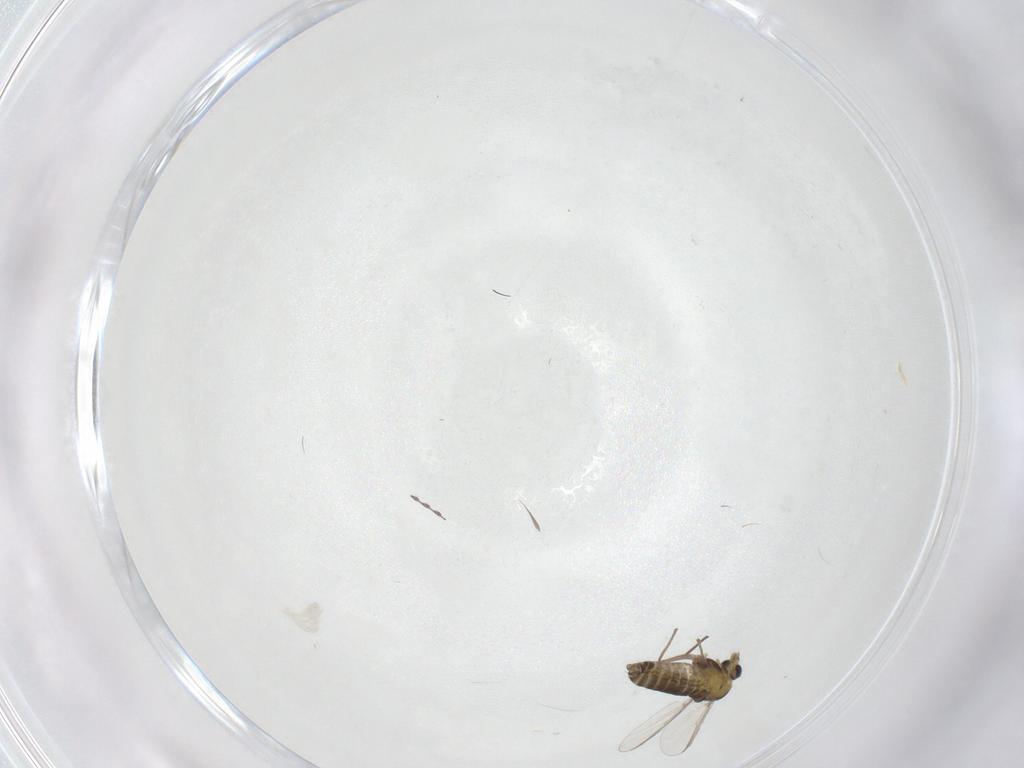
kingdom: Animalia
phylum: Arthropoda
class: Insecta
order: Diptera
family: Chironomidae
